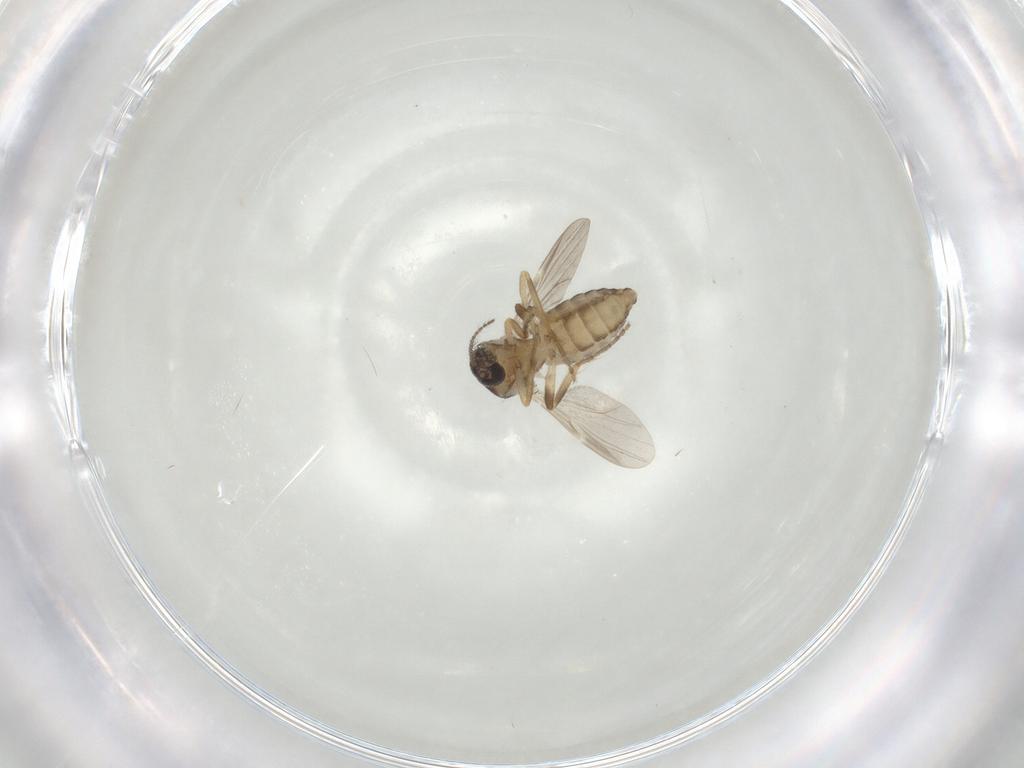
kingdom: Animalia
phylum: Arthropoda
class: Insecta
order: Diptera
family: Ceratopogonidae
